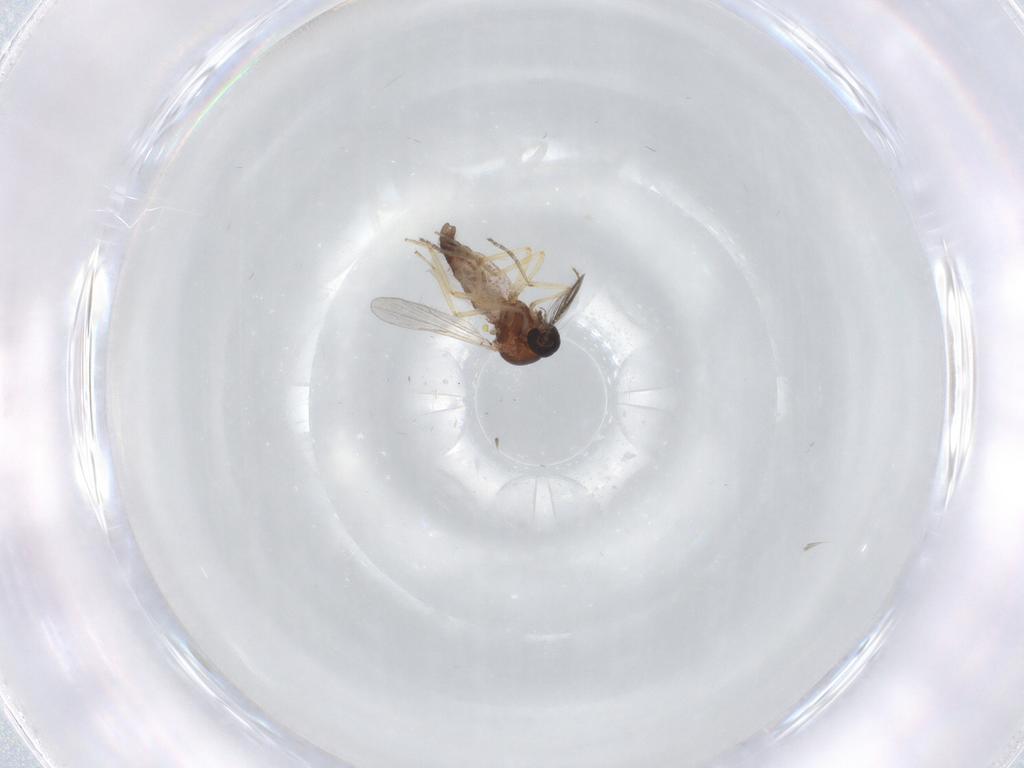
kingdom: Animalia
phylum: Arthropoda
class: Insecta
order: Diptera
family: Ceratopogonidae
